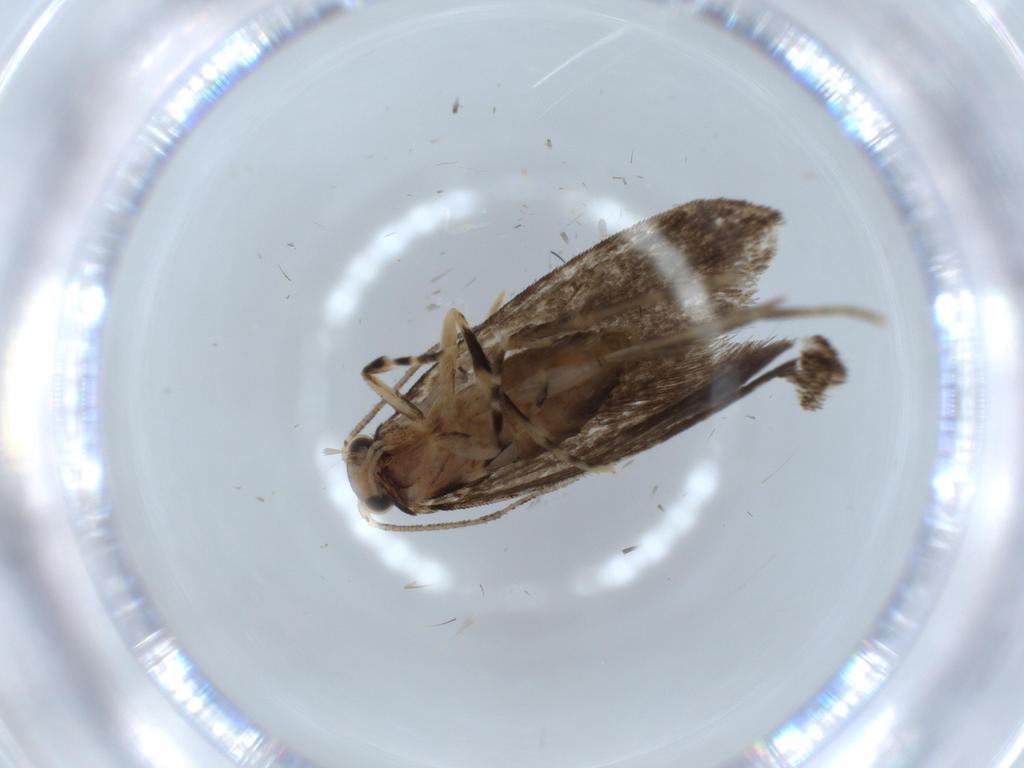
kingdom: Animalia
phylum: Arthropoda
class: Insecta
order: Lepidoptera
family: Tineidae
